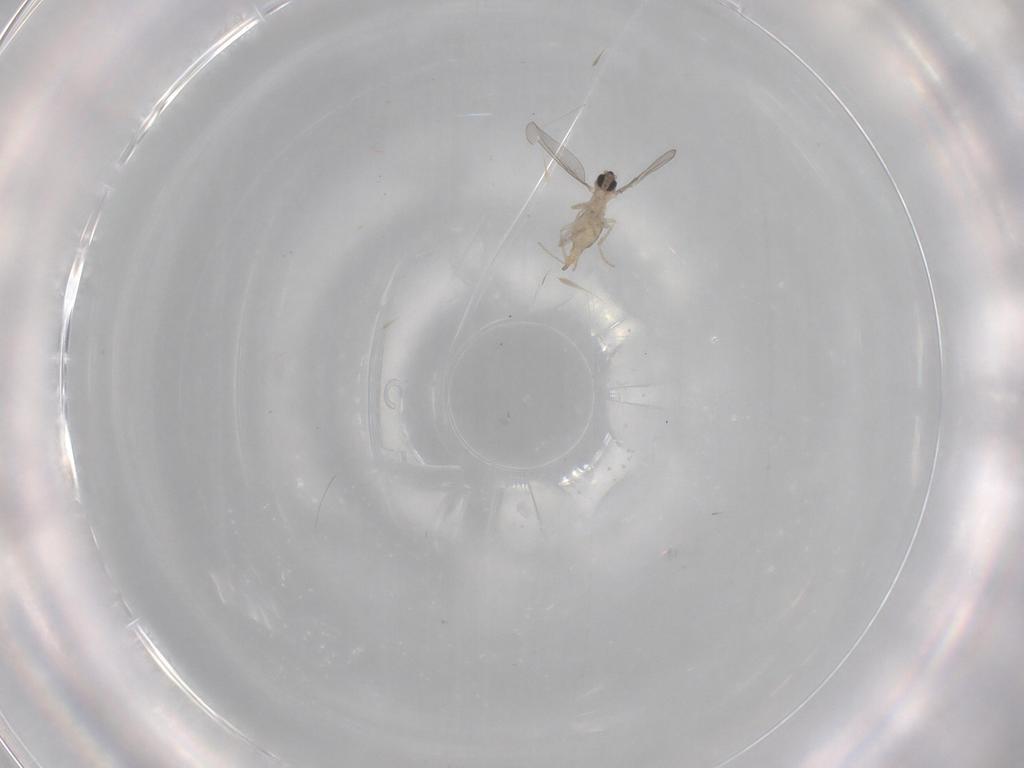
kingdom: Animalia
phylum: Arthropoda
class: Insecta
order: Diptera
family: Cecidomyiidae
